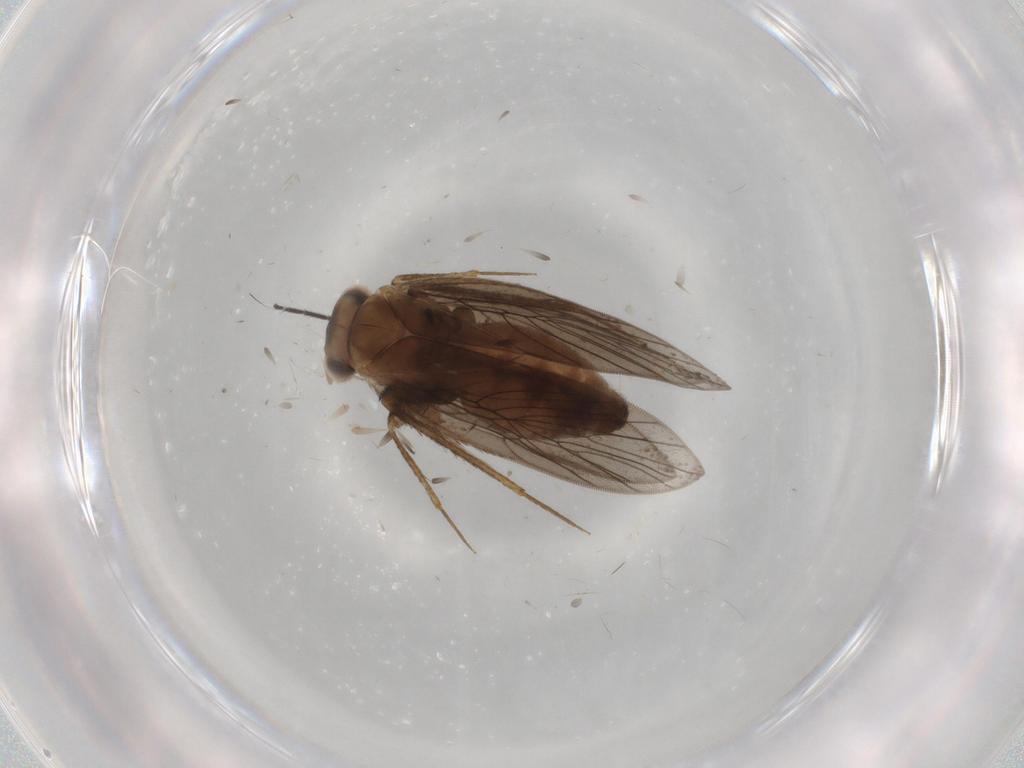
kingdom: Animalia
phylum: Arthropoda
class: Insecta
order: Psocodea
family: Lepidopsocidae
